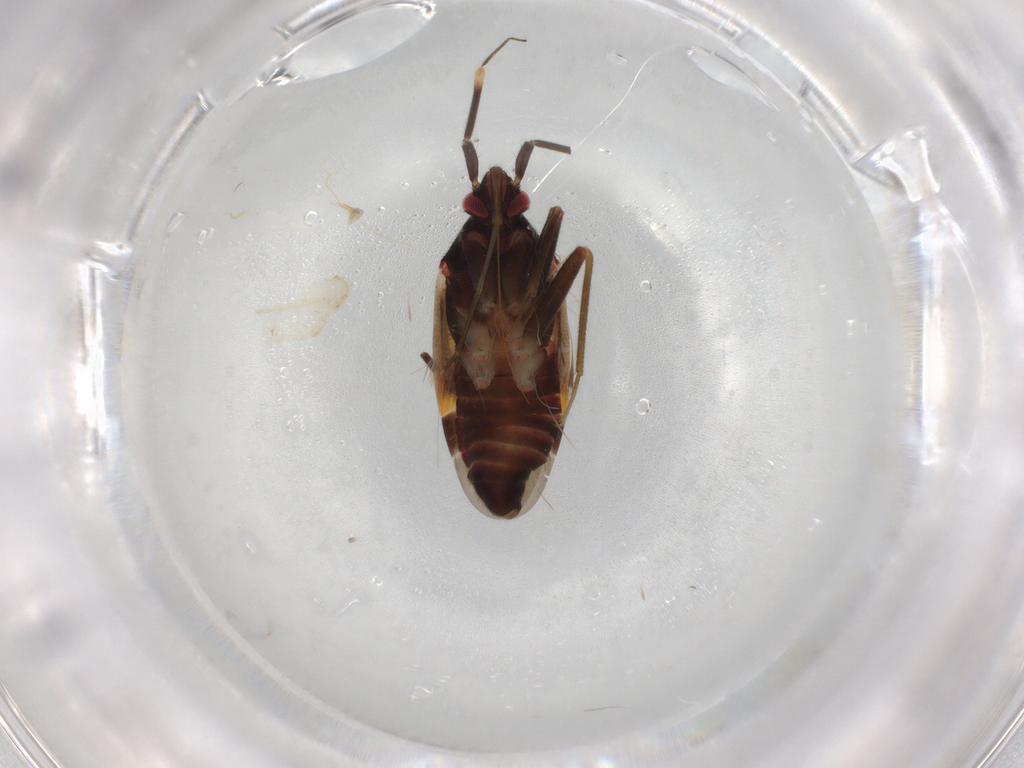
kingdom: Animalia
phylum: Arthropoda
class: Insecta
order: Hemiptera
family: Miridae
